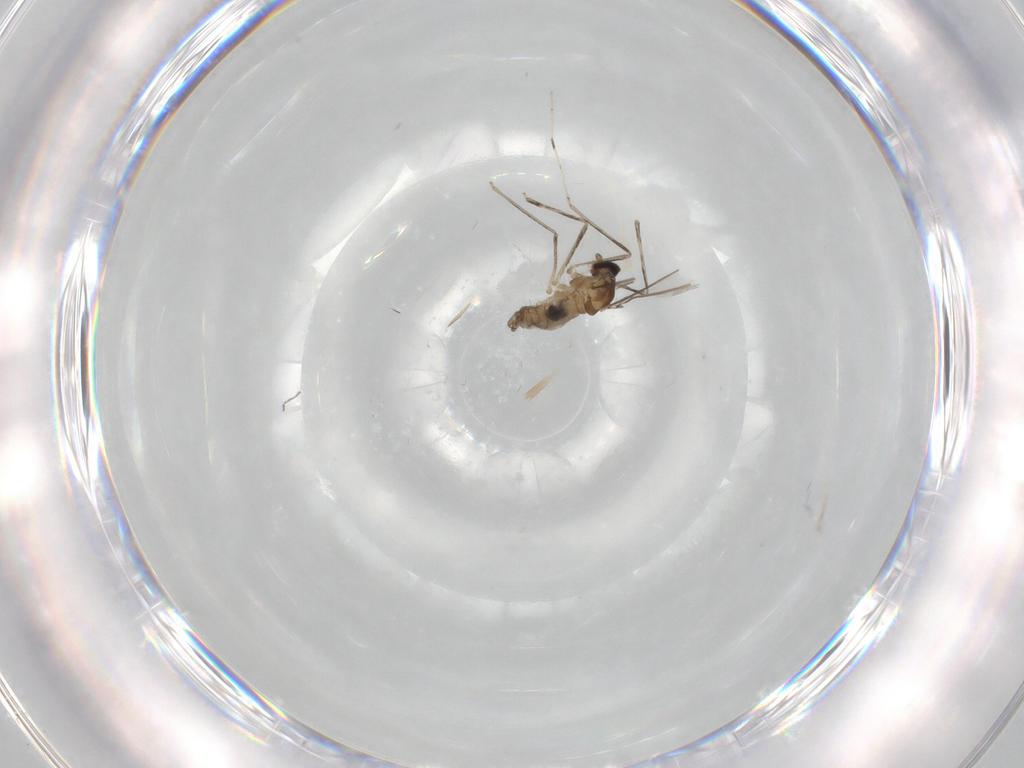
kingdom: Animalia
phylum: Arthropoda
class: Insecta
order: Diptera
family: Cecidomyiidae
